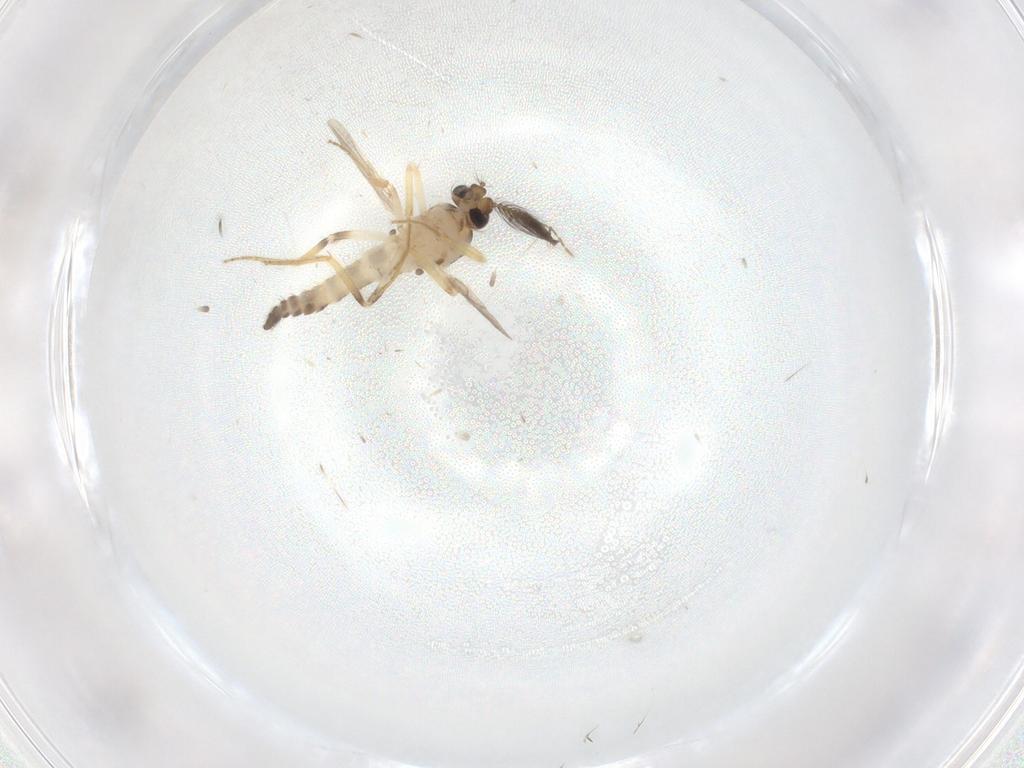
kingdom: Animalia
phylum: Arthropoda
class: Insecta
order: Diptera
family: Ceratopogonidae
